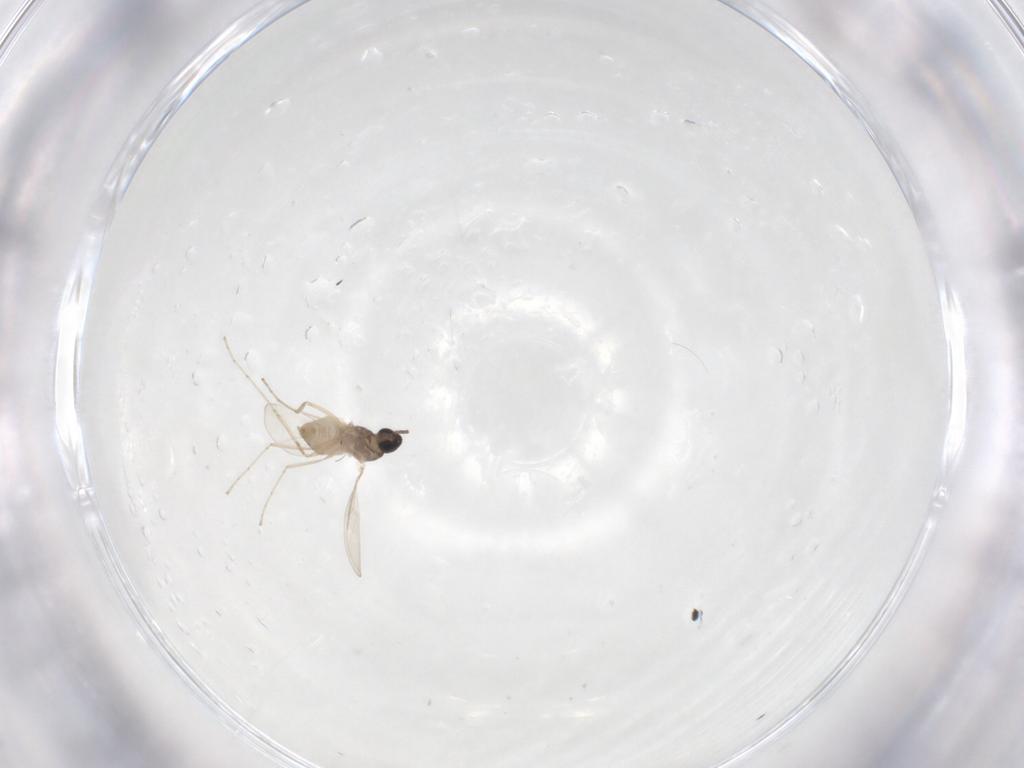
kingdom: Animalia
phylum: Arthropoda
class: Insecta
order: Diptera
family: Cecidomyiidae
